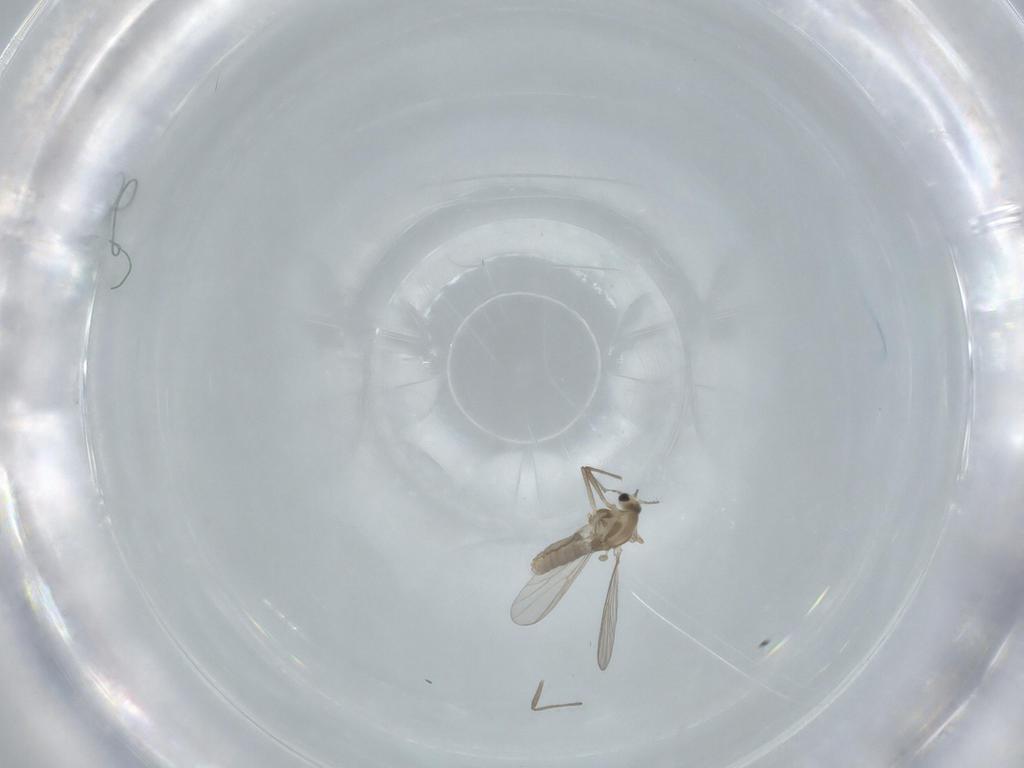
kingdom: Animalia
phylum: Arthropoda
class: Insecta
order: Diptera
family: Chironomidae
